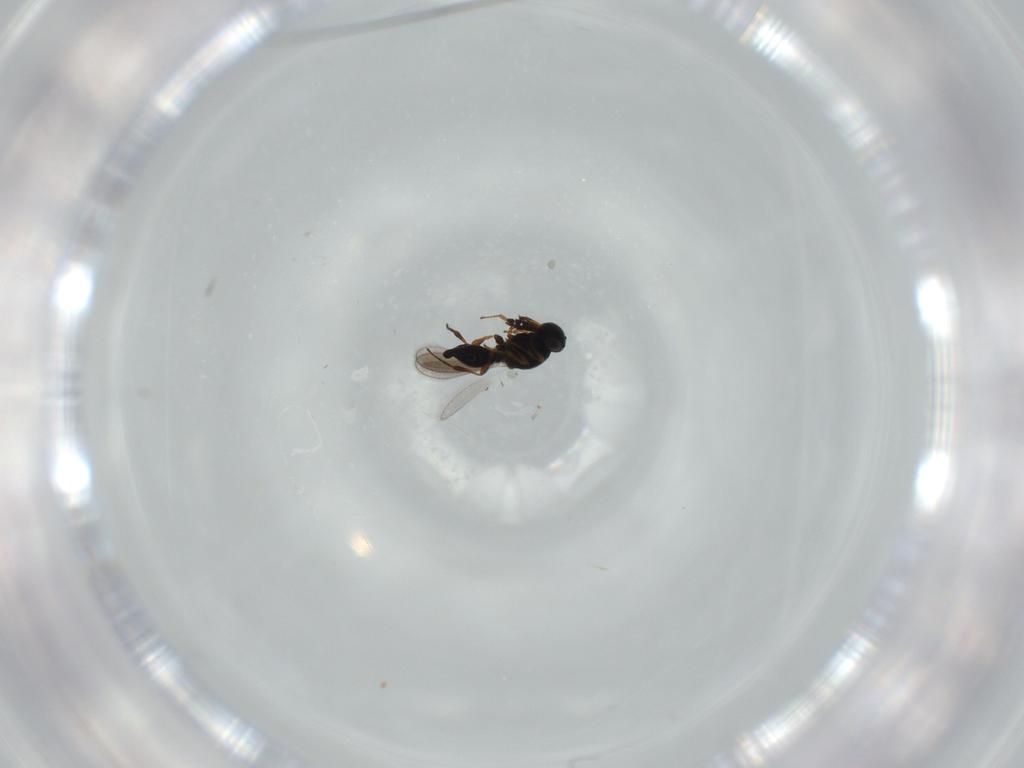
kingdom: Animalia
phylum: Arthropoda
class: Insecta
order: Hymenoptera
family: Platygastridae
